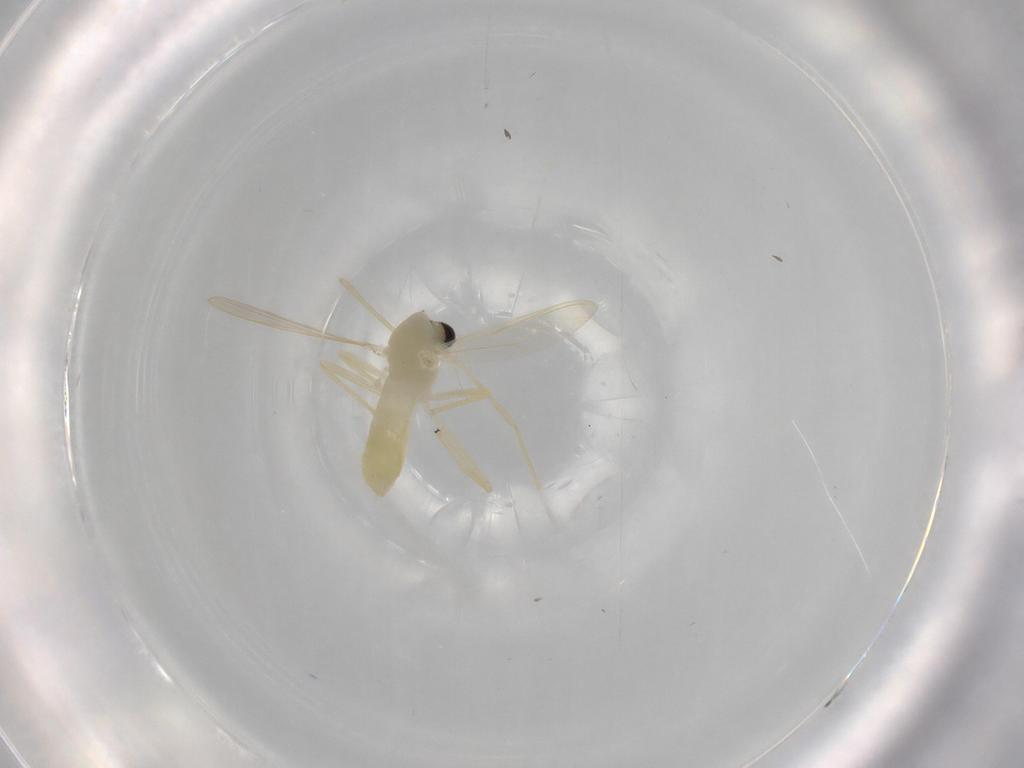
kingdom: Animalia
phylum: Arthropoda
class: Insecta
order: Diptera
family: Chironomidae
